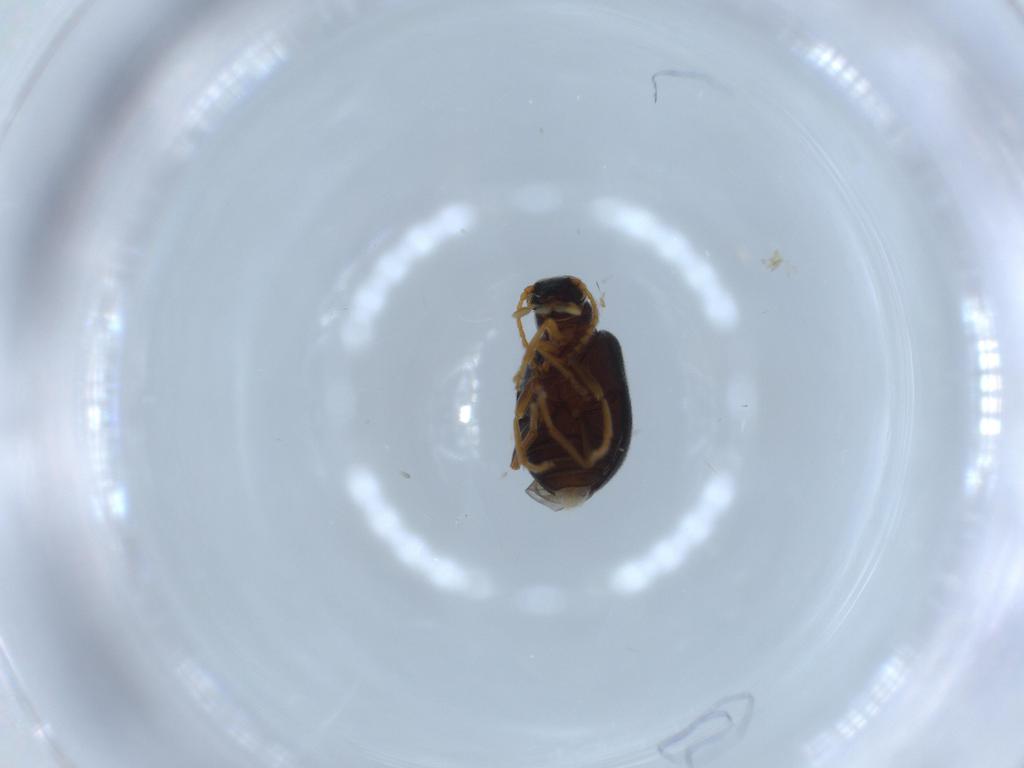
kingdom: Animalia
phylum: Arthropoda
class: Insecta
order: Coleoptera
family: Aderidae
